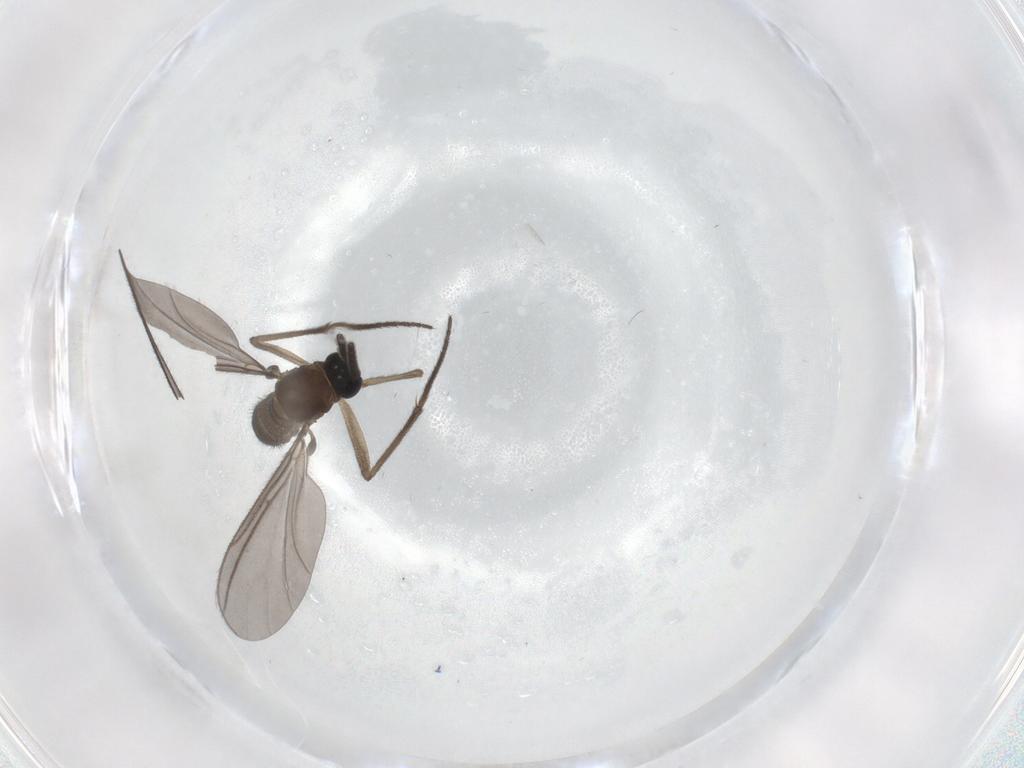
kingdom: Animalia
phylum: Arthropoda
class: Insecta
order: Diptera
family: Sciaridae
